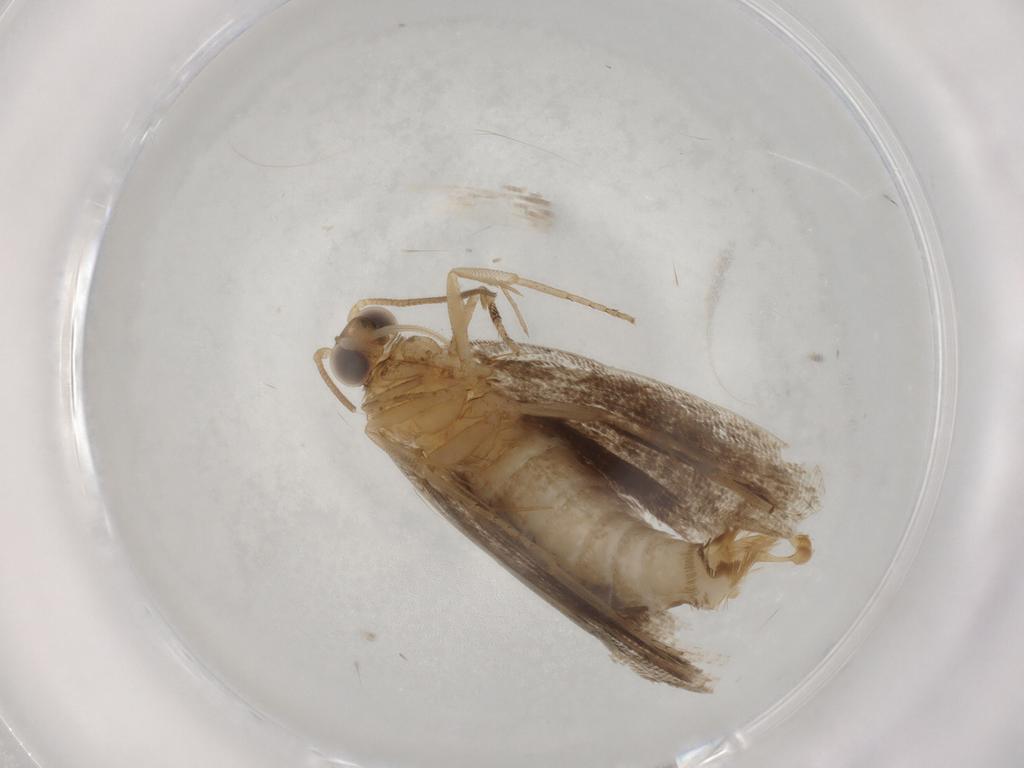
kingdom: Animalia
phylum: Arthropoda
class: Insecta
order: Lepidoptera
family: Tortricidae
